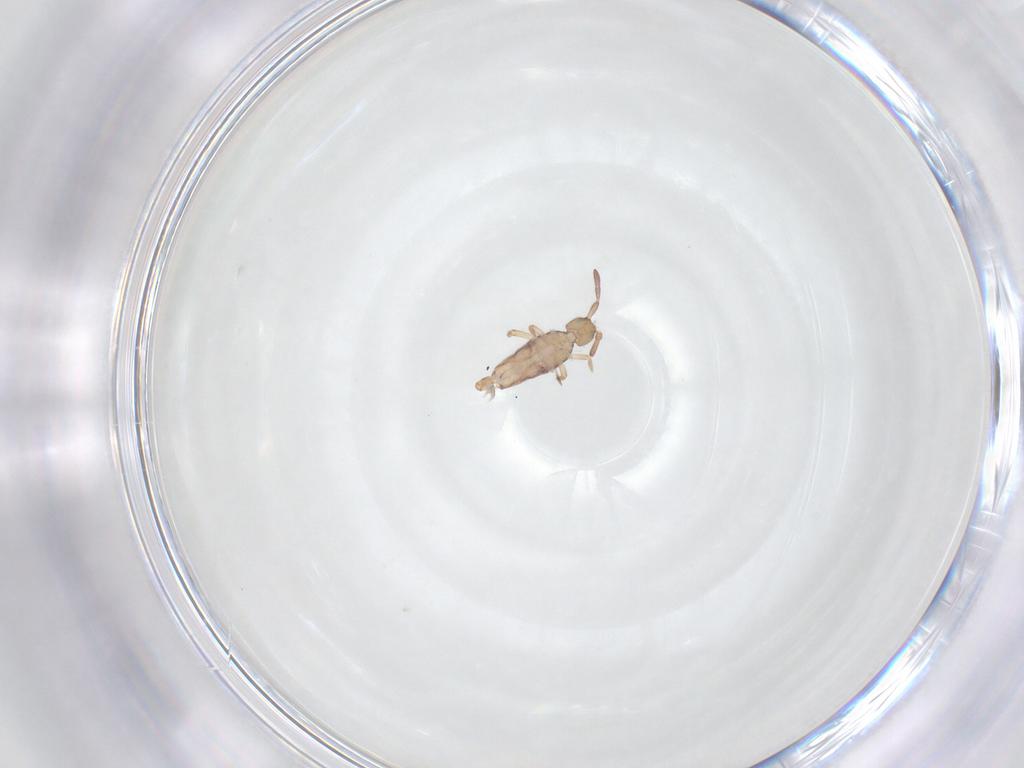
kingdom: Animalia
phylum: Arthropoda
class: Collembola
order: Entomobryomorpha
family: Entomobryidae
